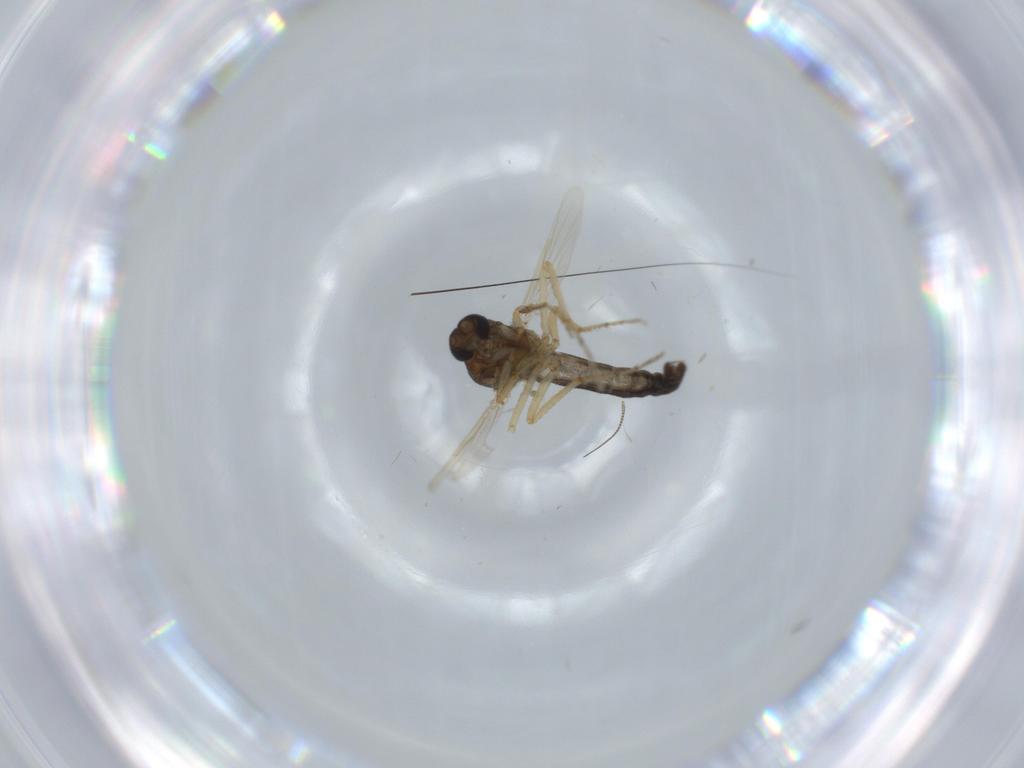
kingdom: Animalia
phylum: Arthropoda
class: Insecta
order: Diptera
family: Ceratopogonidae
